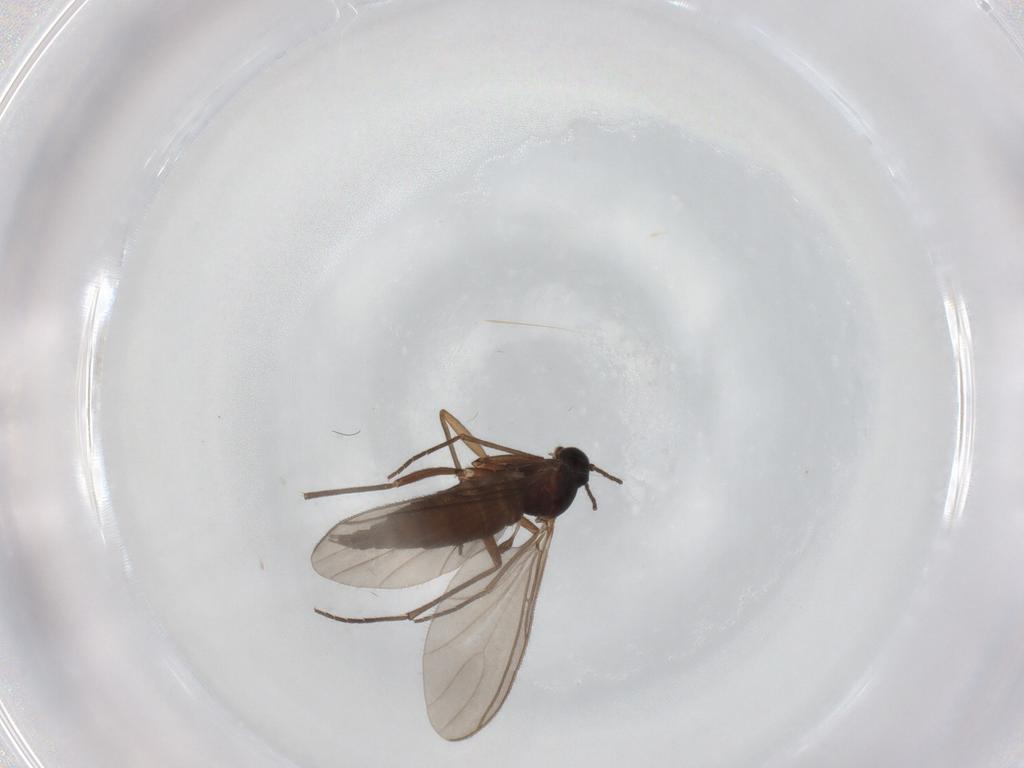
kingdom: Animalia
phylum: Arthropoda
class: Insecta
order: Diptera
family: Sciaridae
